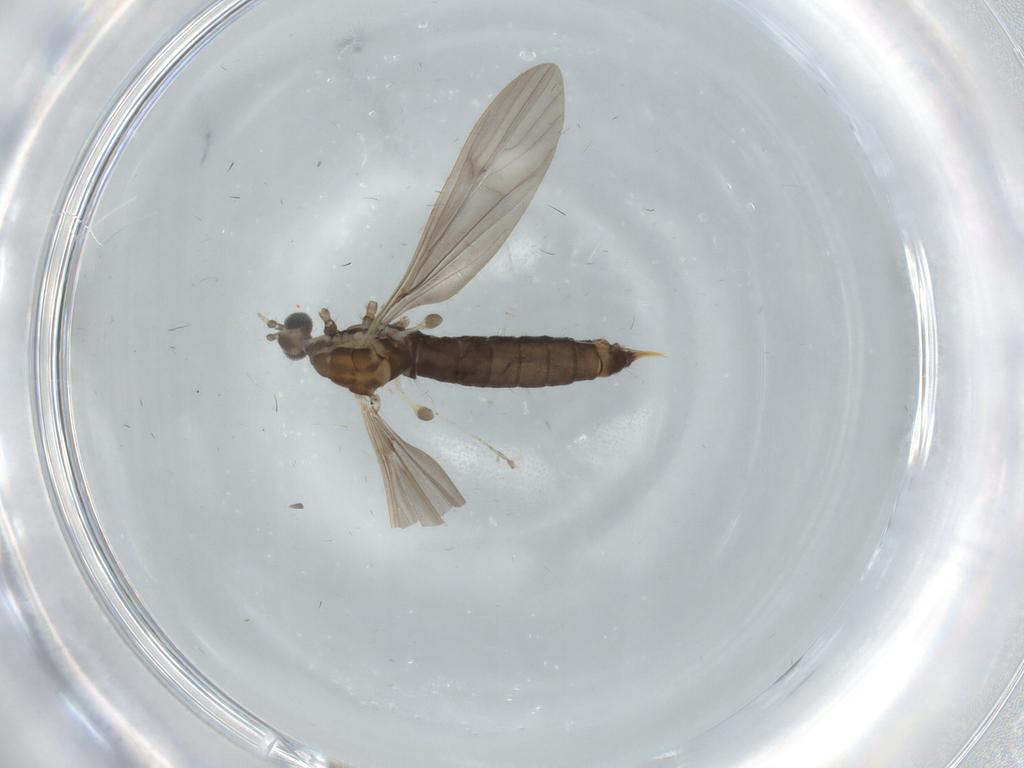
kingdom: Animalia
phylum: Arthropoda
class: Insecta
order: Diptera
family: Limoniidae
